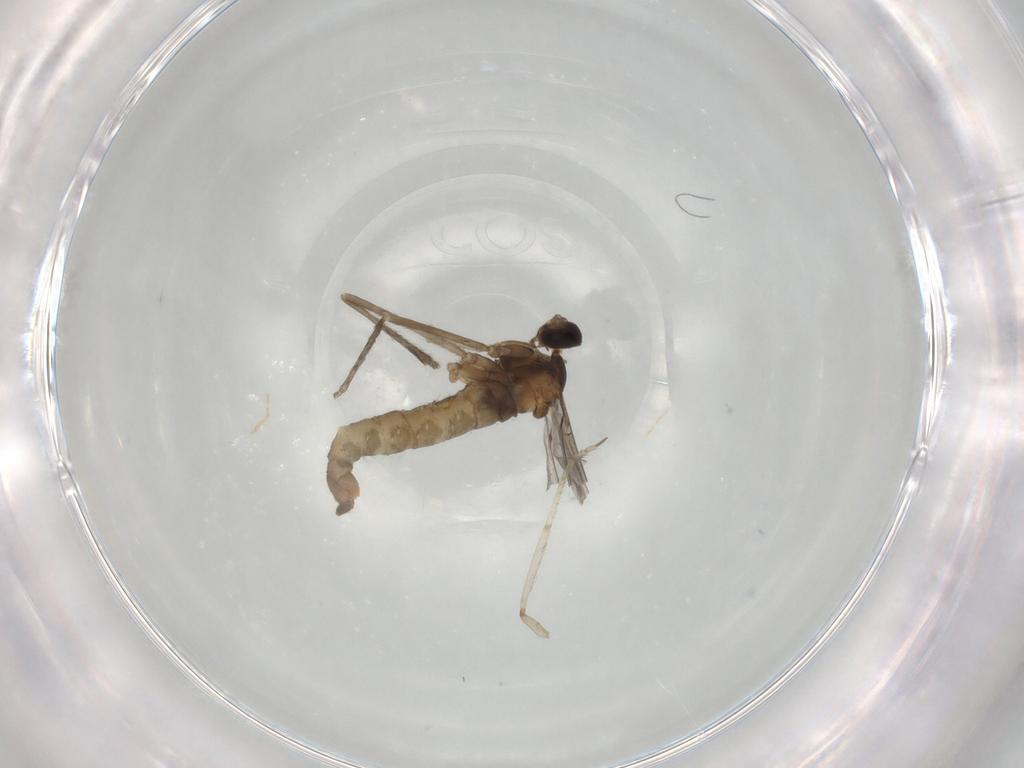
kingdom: Animalia
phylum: Arthropoda
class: Insecta
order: Diptera
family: Cecidomyiidae
